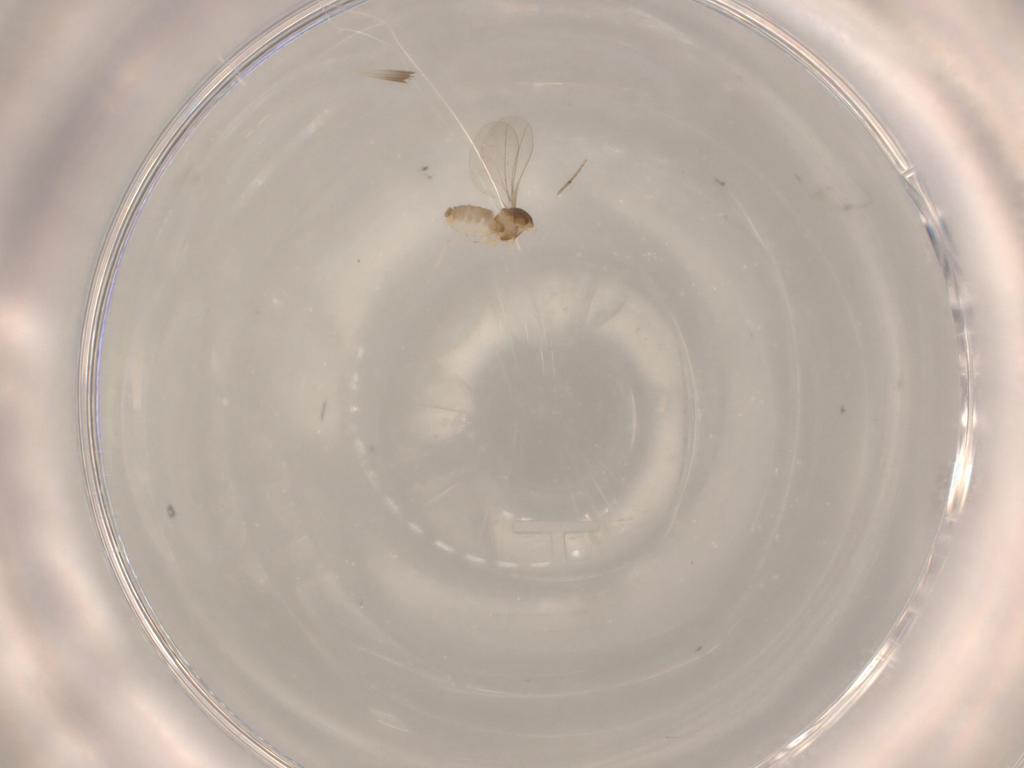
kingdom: Animalia
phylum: Arthropoda
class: Insecta
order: Diptera
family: Cecidomyiidae
